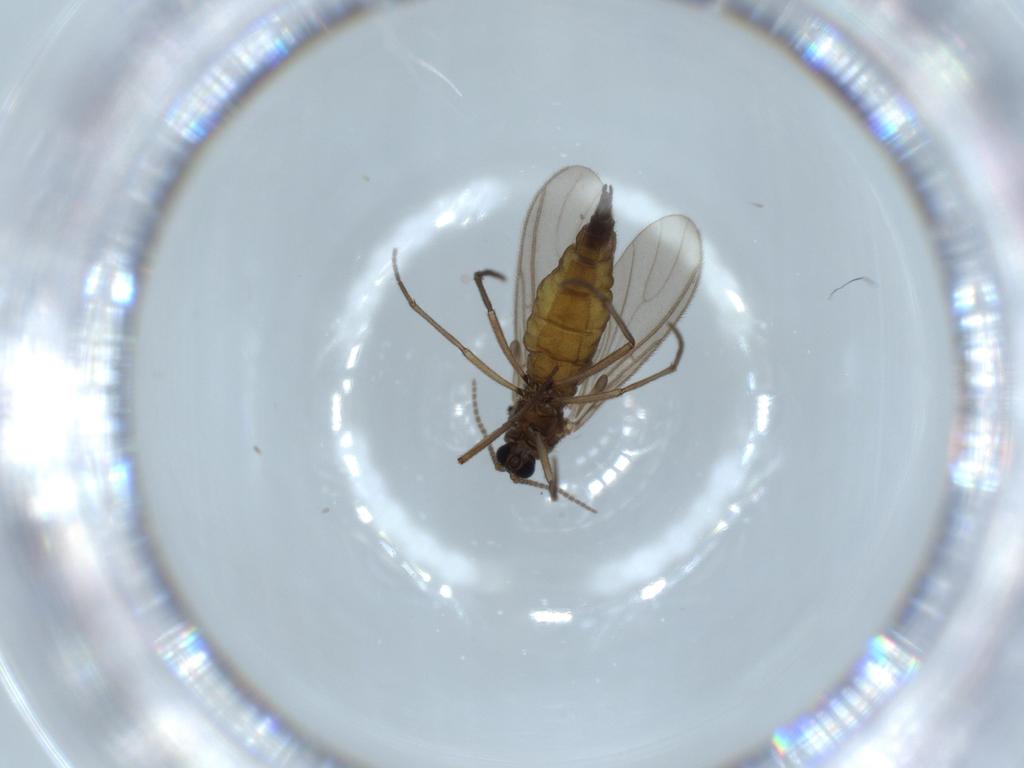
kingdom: Animalia
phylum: Arthropoda
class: Insecta
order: Diptera
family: Sciaridae
